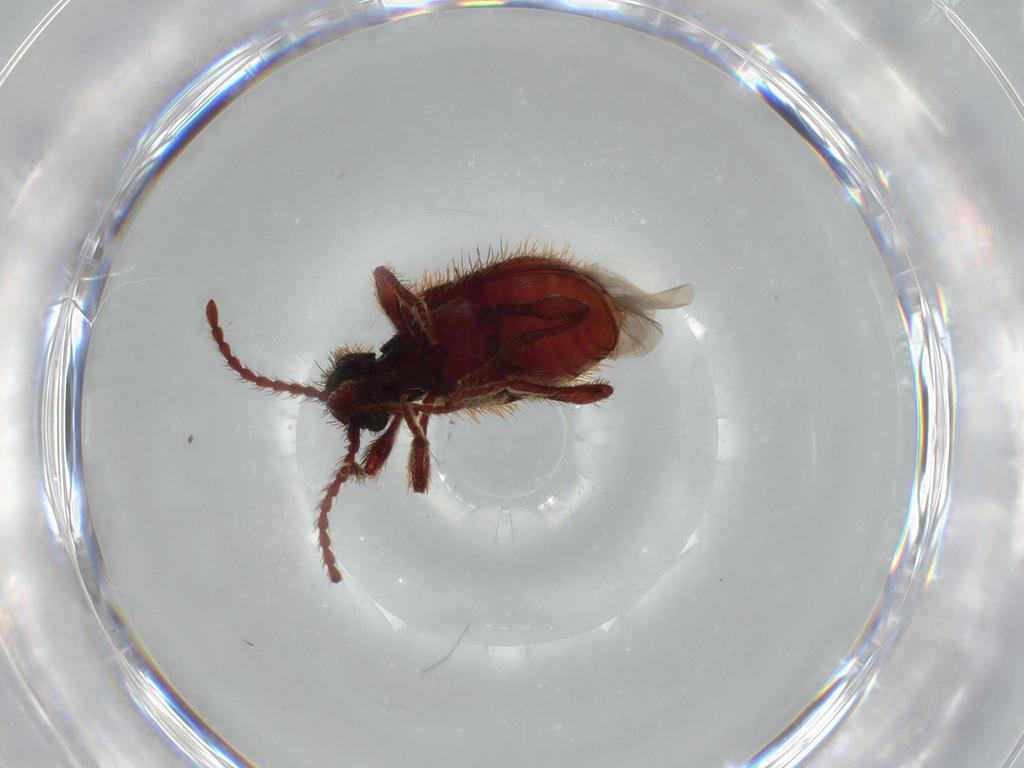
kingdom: Animalia
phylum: Arthropoda
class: Insecta
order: Coleoptera
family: Chrysomelidae
